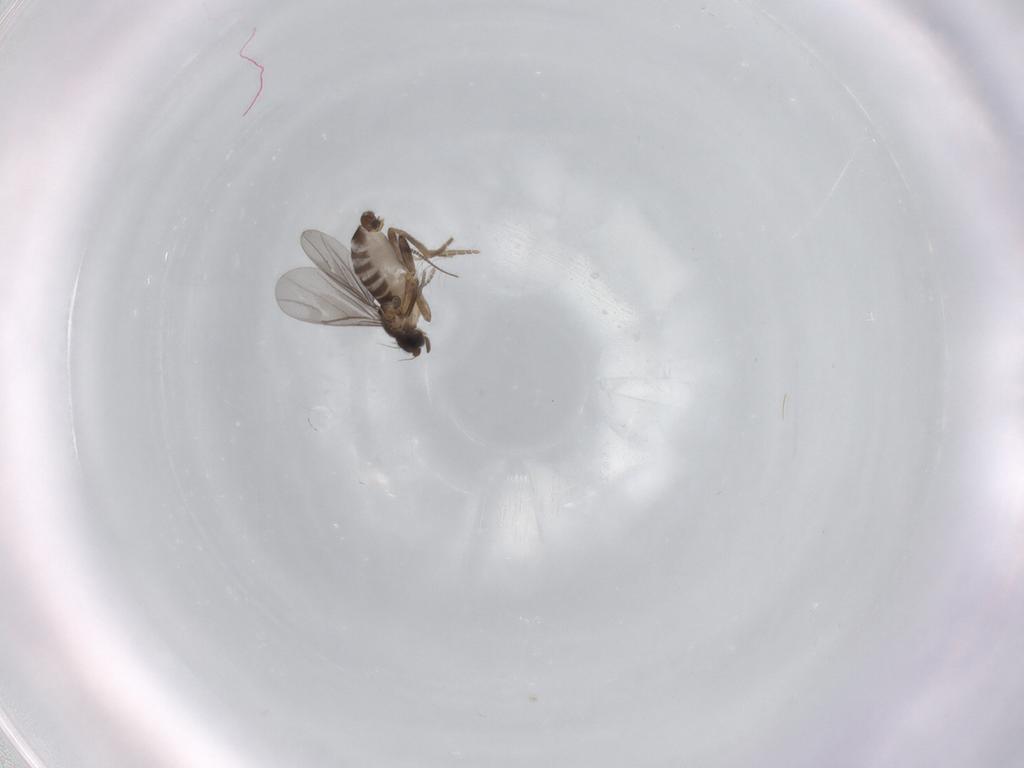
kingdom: Animalia
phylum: Arthropoda
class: Insecta
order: Diptera
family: Chironomidae
